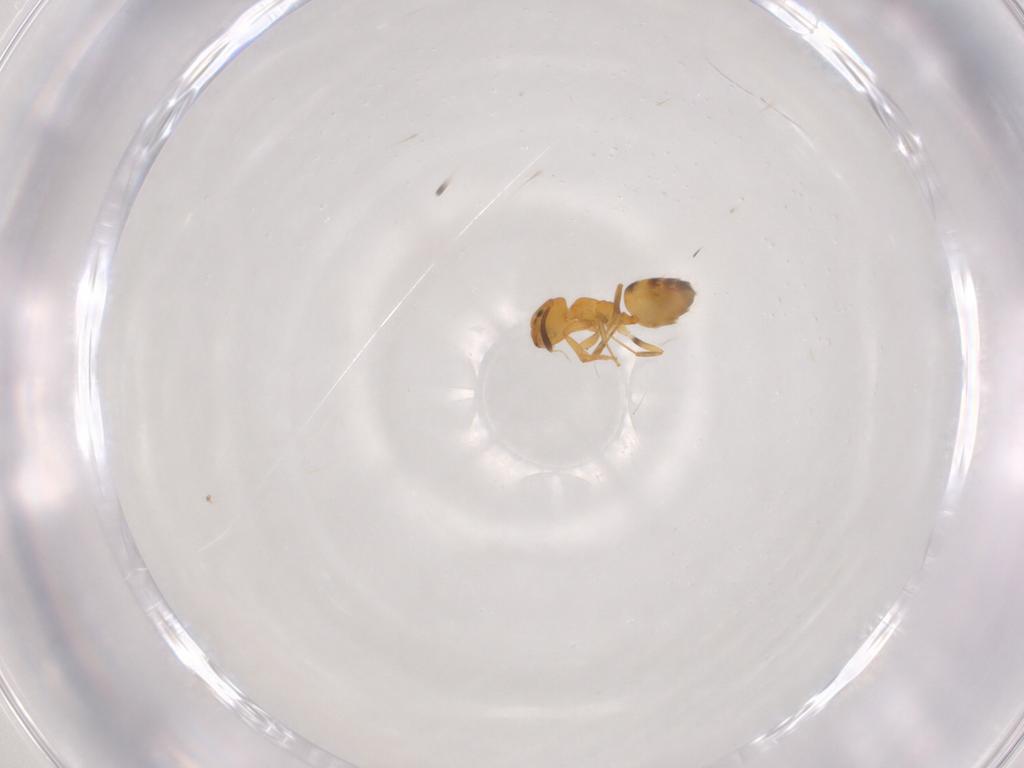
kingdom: Animalia
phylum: Arthropoda
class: Insecta
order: Hymenoptera
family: Formicidae
